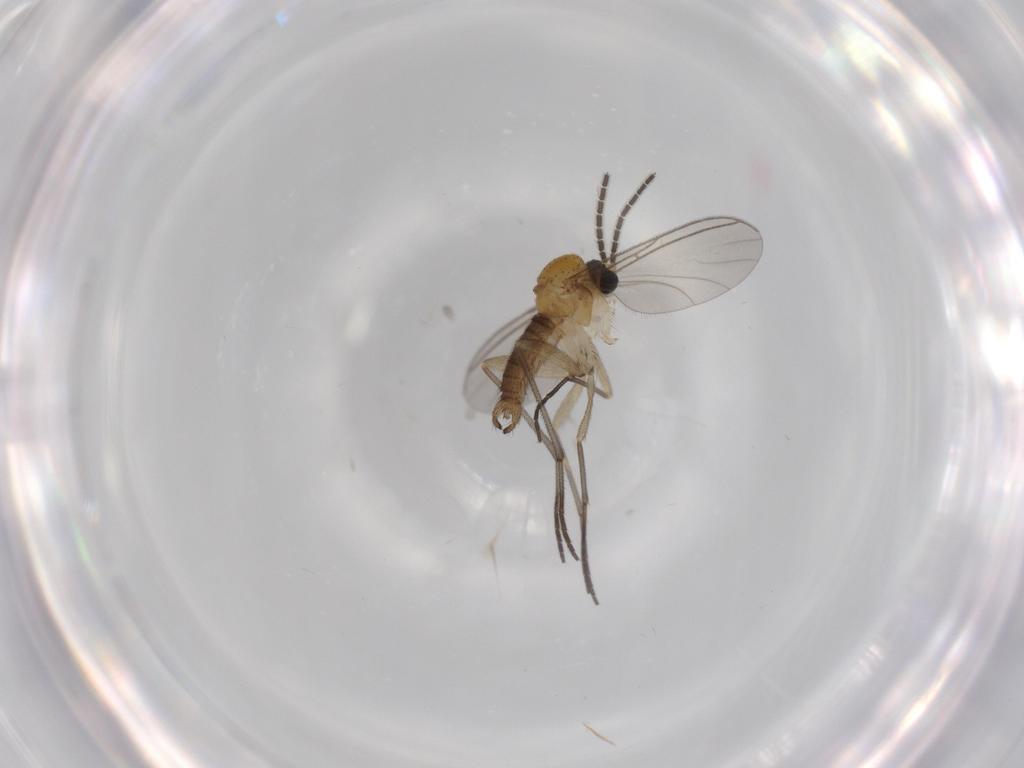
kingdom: Animalia
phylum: Arthropoda
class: Insecta
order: Diptera
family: Sciaridae
